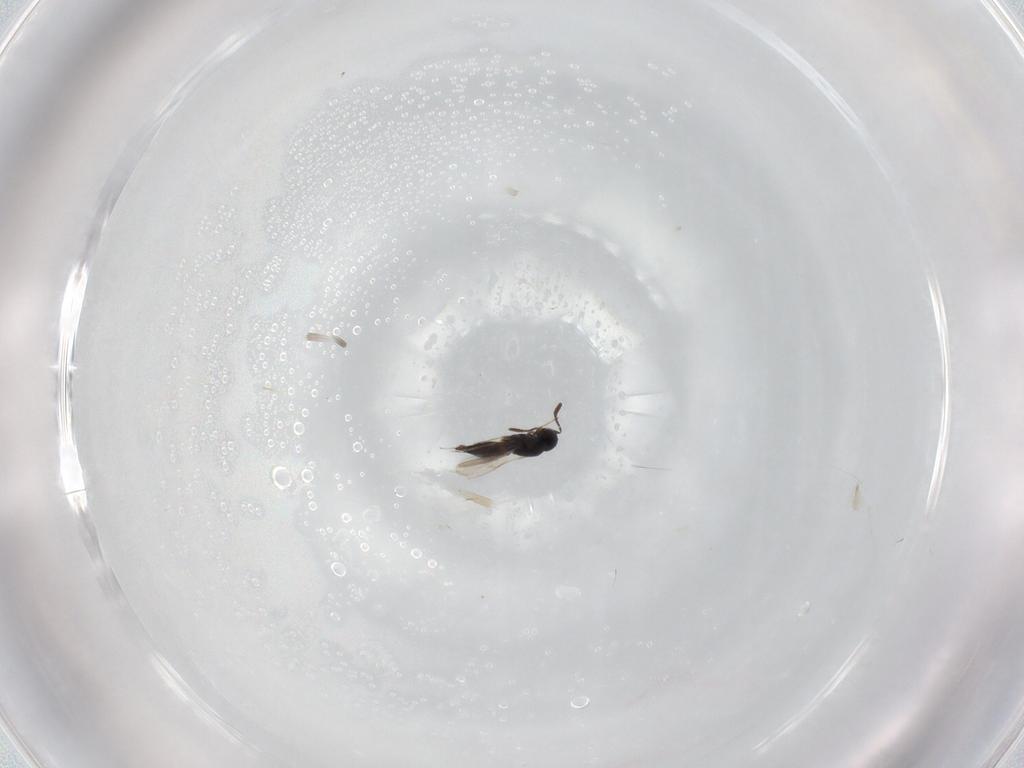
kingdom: Animalia
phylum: Arthropoda
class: Insecta
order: Hymenoptera
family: Scelionidae
